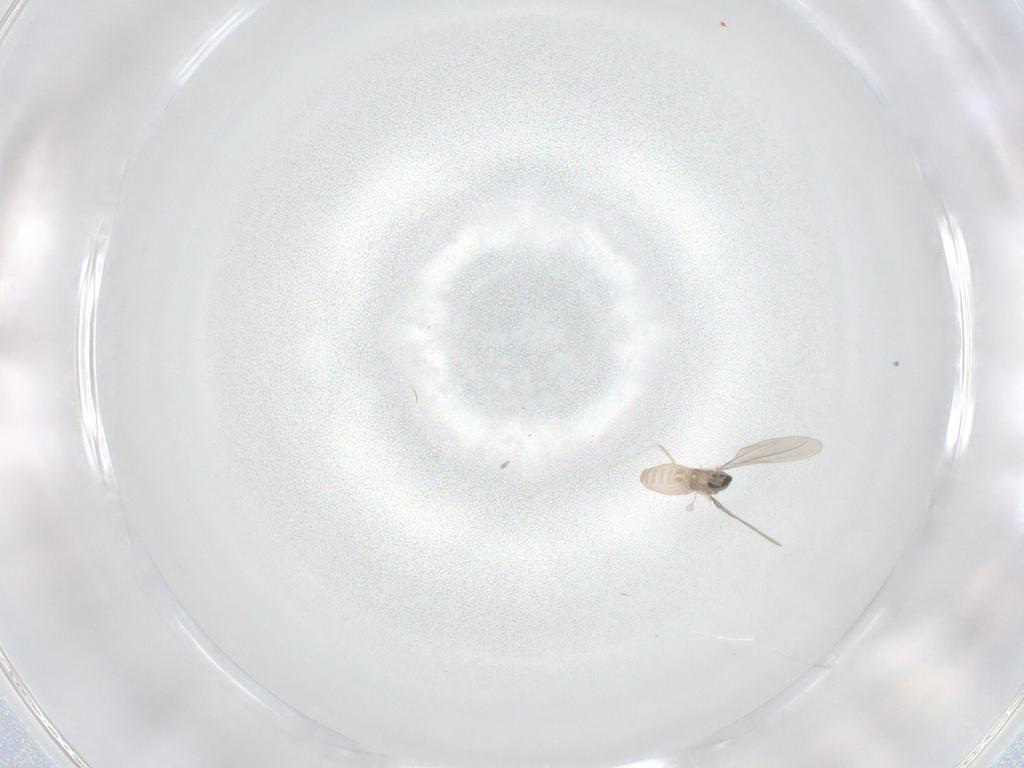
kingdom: Animalia
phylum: Arthropoda
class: Insecta
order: Diptera
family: Cecidomyiidae
